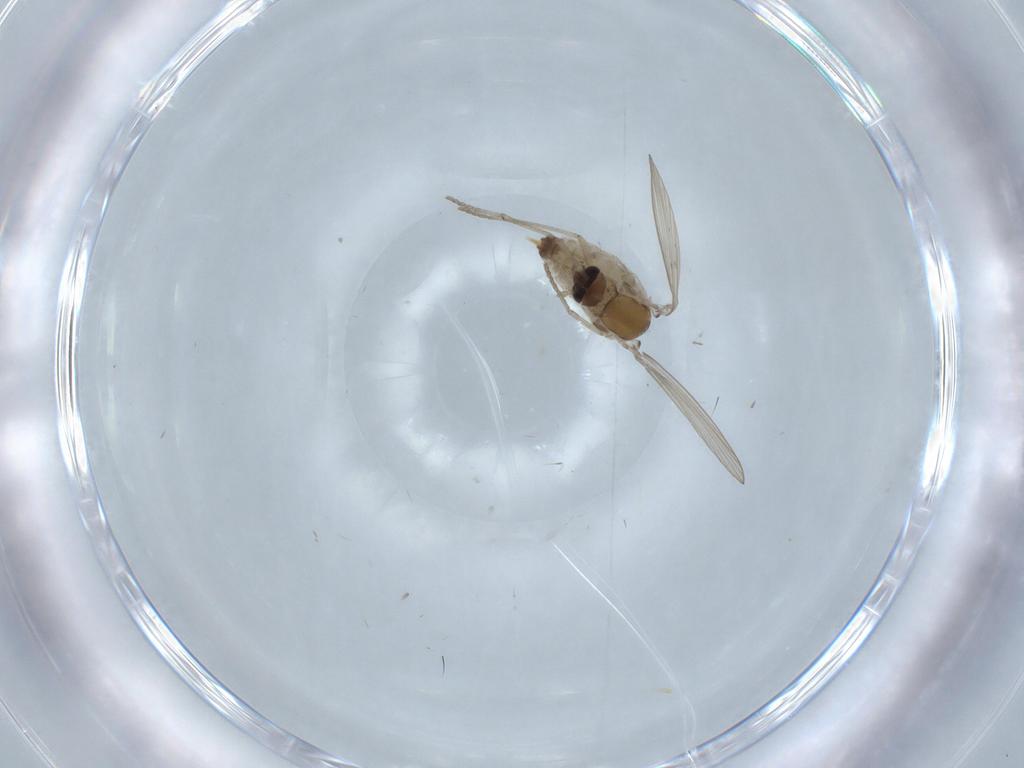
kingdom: Animalia
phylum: Arthropoda
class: Insecta
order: Diptera
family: Psychodidae
